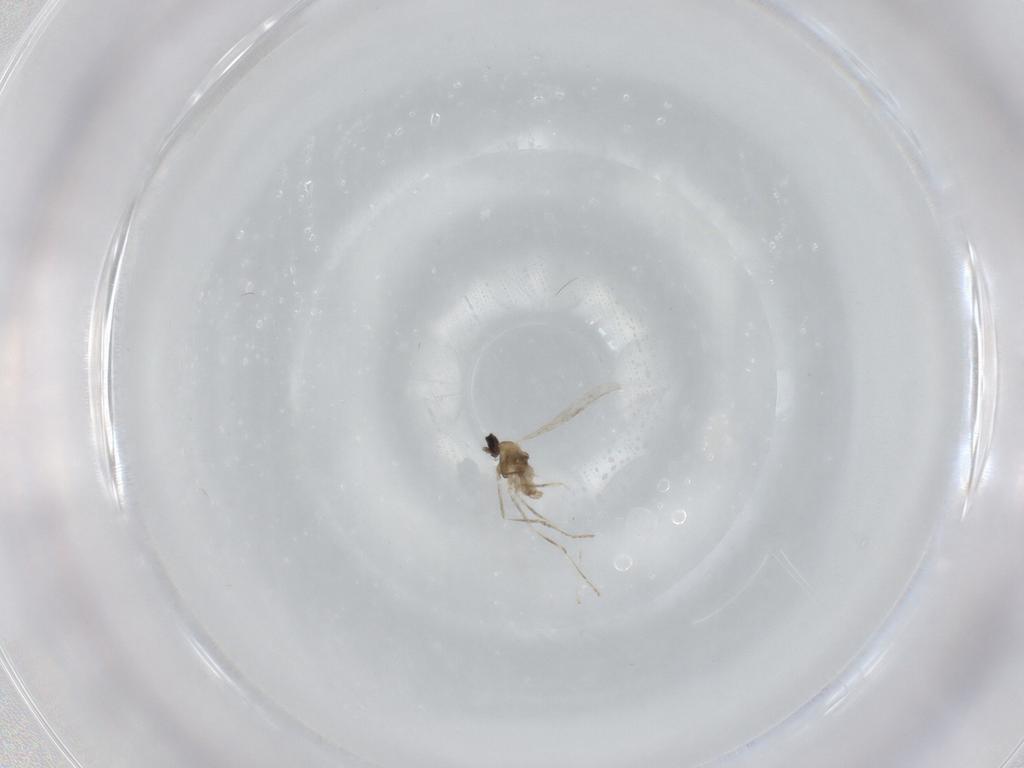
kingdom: Animalia
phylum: Arthropoda
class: Insecta
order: Diptera
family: Cecidomyiidae
